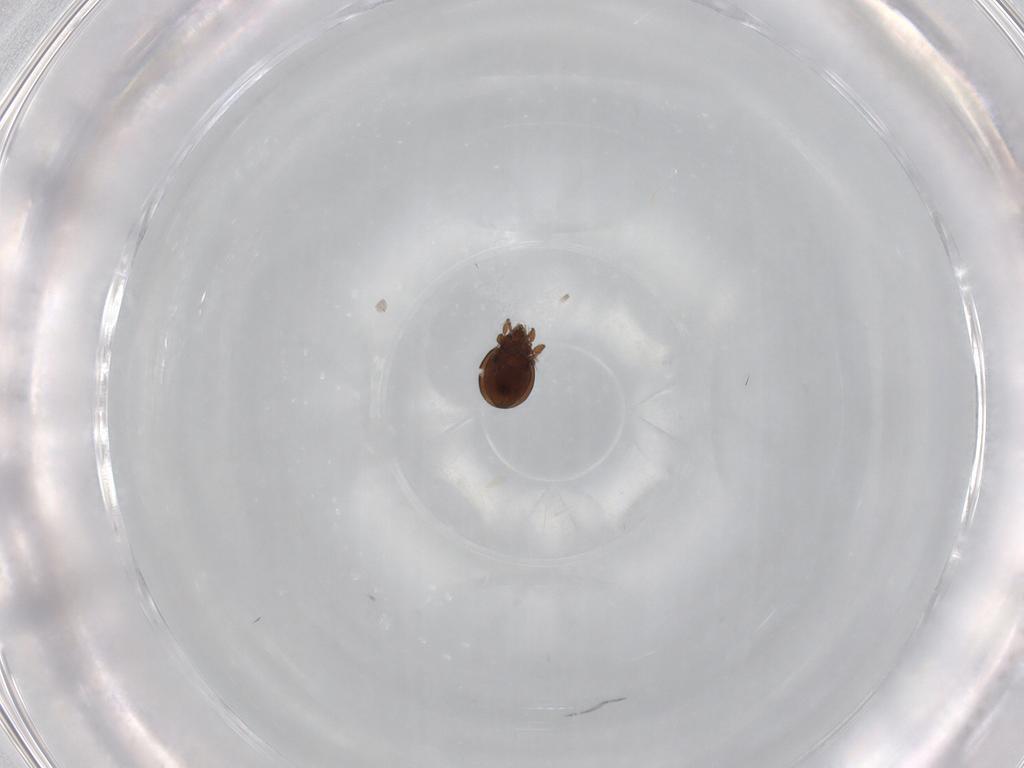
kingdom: Animalia
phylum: Arthropoda
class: Arachnida
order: Sarcoptiformes
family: Oribatulidae
